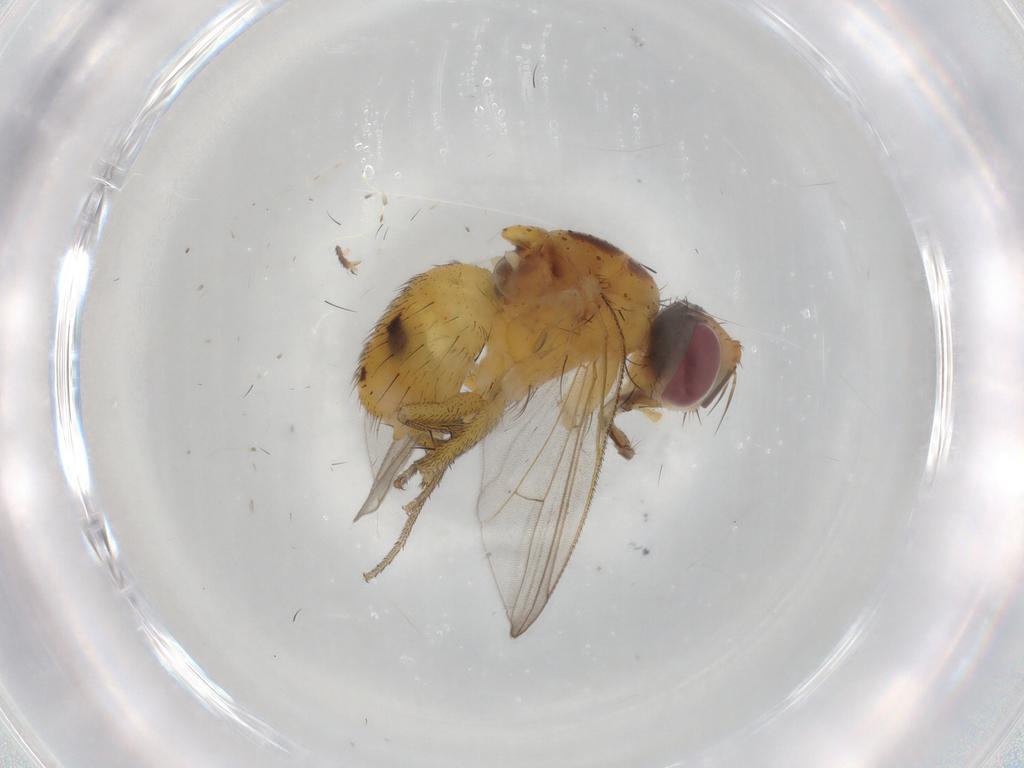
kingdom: Animalia
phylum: Arthropoda
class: Insecta
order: Diptera
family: Muscidae
